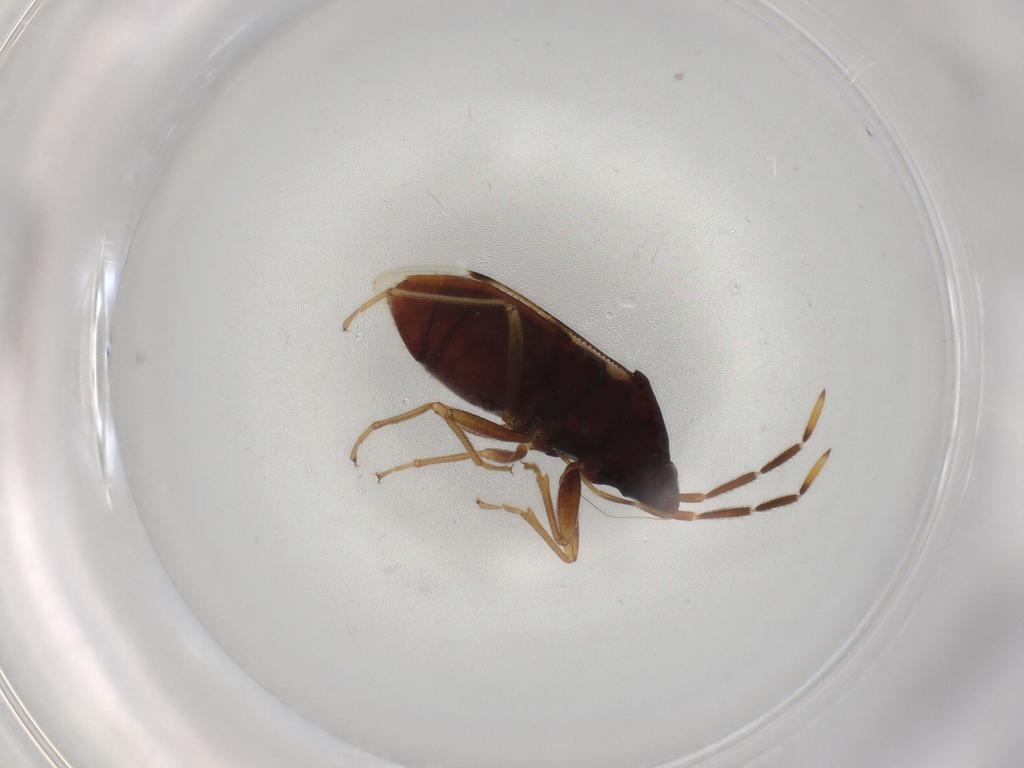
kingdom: Animalia
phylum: Arthropoda
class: Insecta
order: Hemiptera
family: Rhyparochromidae
